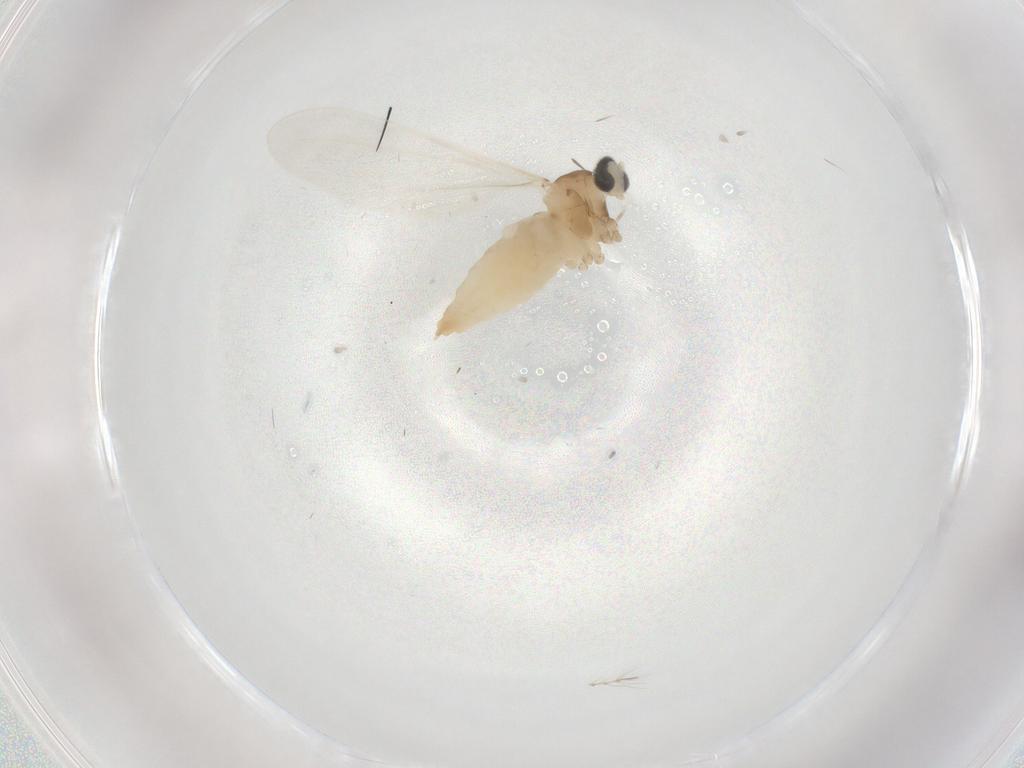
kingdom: Animalia
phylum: Arthropoda
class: Insecta
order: Diptera
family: Cecidomyiidae
